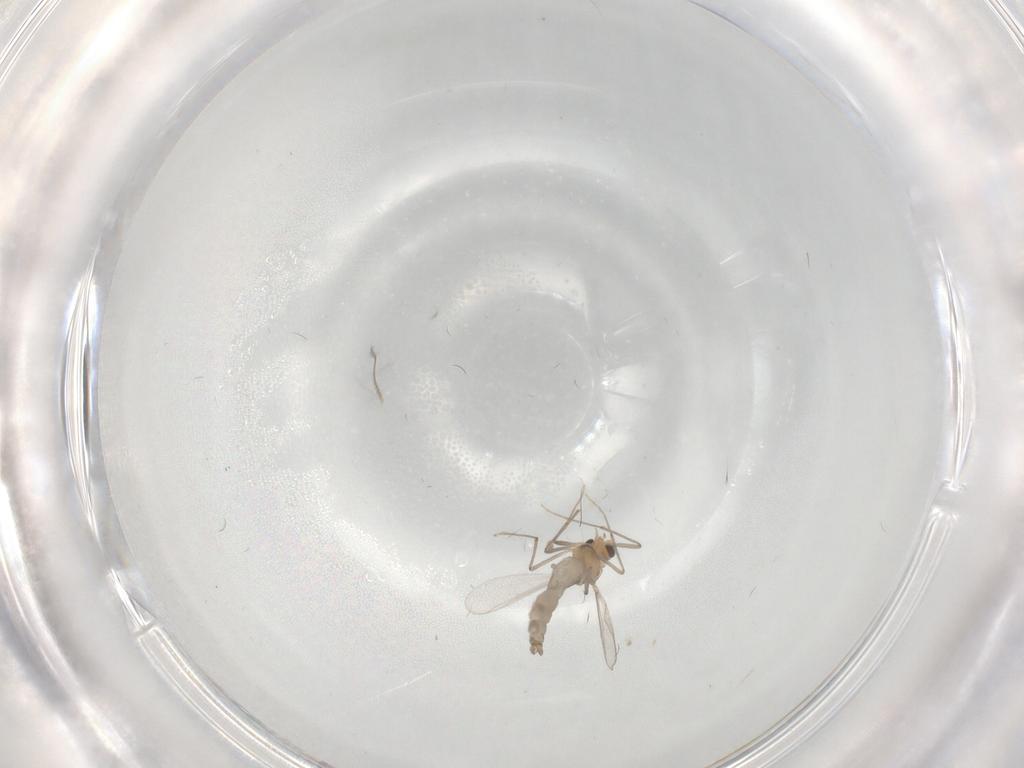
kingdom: Animalia
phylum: Arthropoda
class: Insecta
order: Diptera
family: Chironomidae
